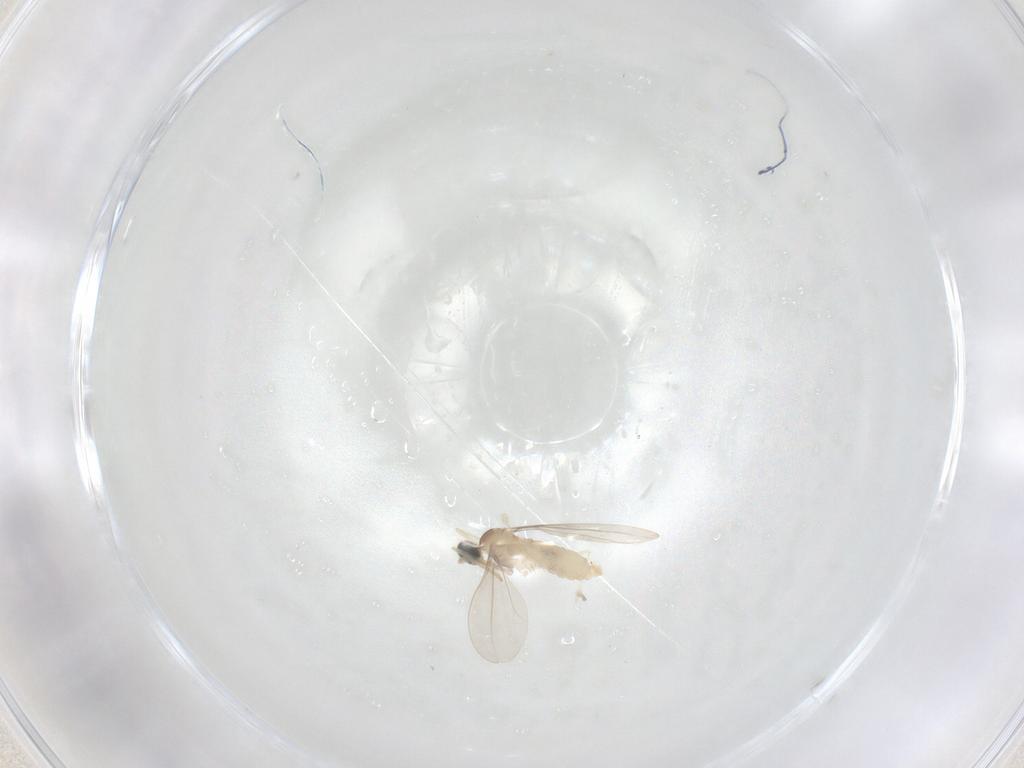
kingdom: Animalia
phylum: Arthropoda
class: Insecta
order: Diptera
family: Cecidomyiidae
